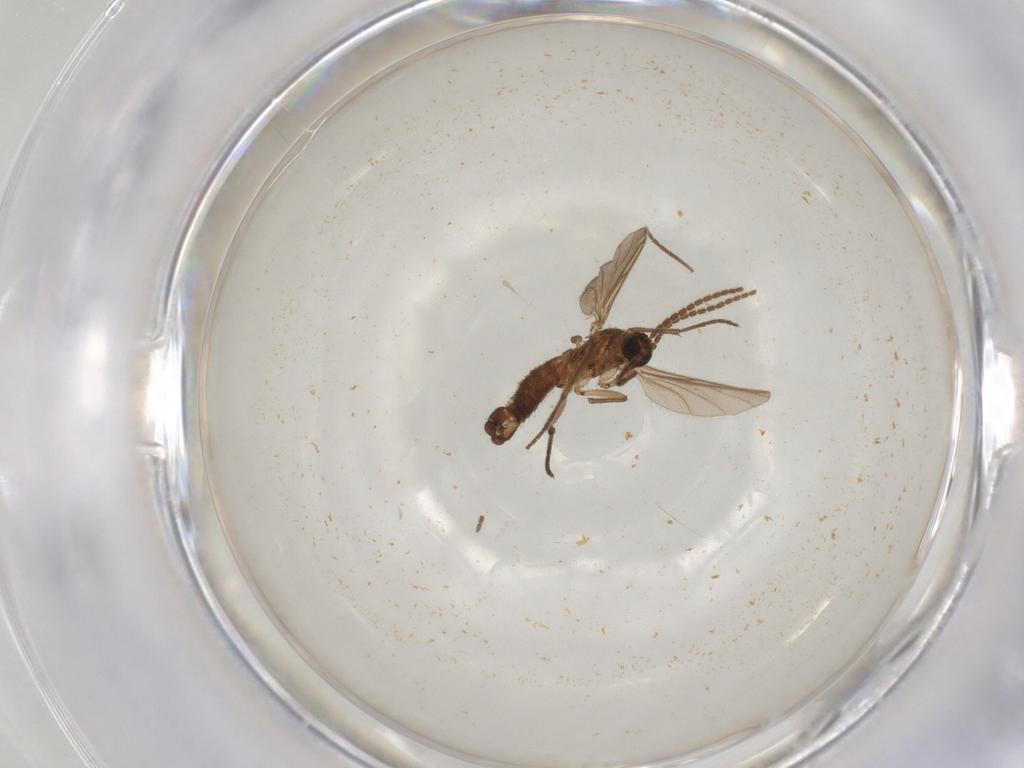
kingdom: Animalia
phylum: Arthropoda
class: Insecta
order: Diptera
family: Sciaridae
